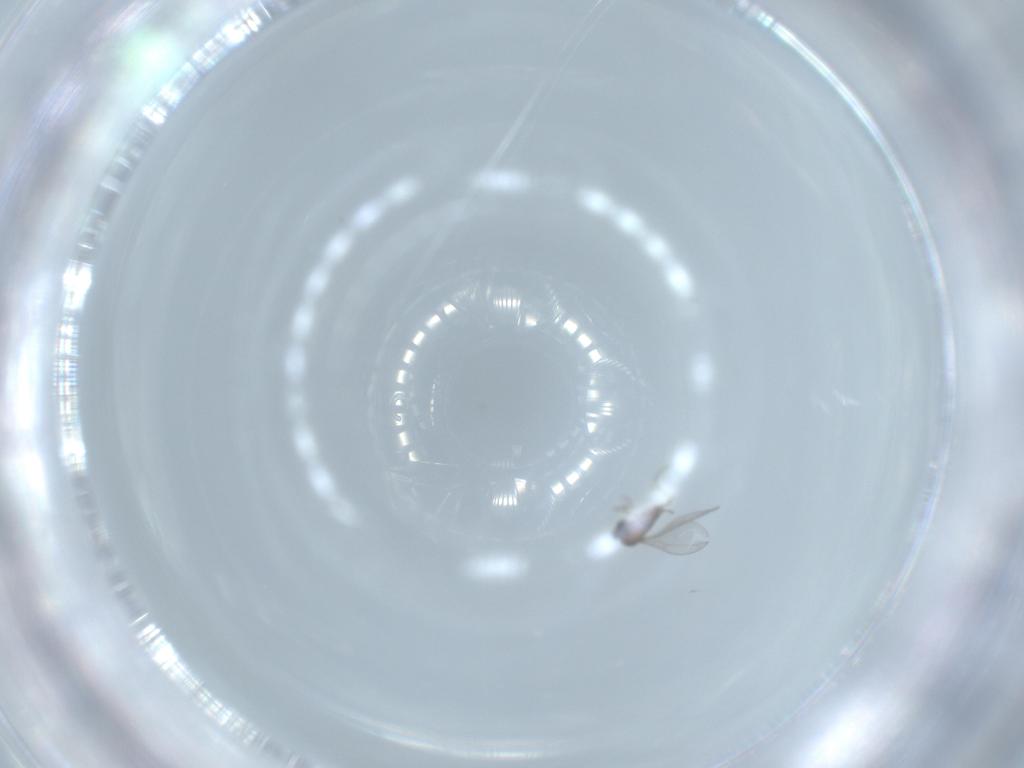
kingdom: Animalia
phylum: Arthropoda
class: Insecta
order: Diptera
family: Cecidomyiidae
